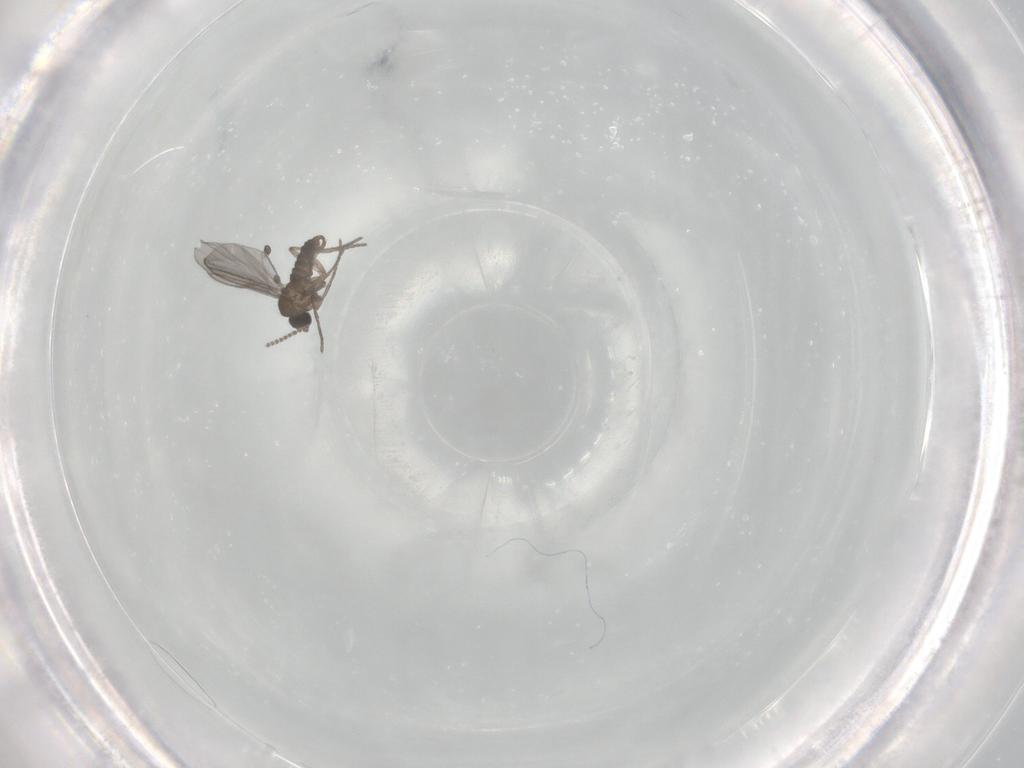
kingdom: Animalia
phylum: Arthropoda
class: Insecta
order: Diptera
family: Sciaridae
